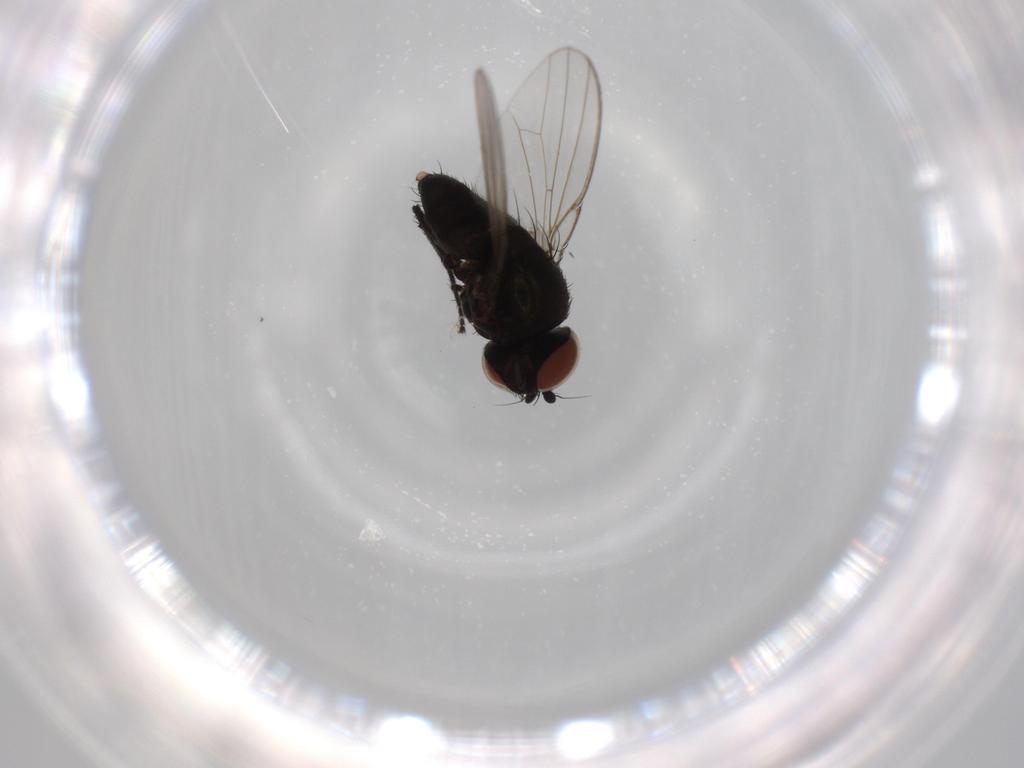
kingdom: Animalia
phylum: Arthropoda
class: Insecta
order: Diptera
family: Milichiidae
